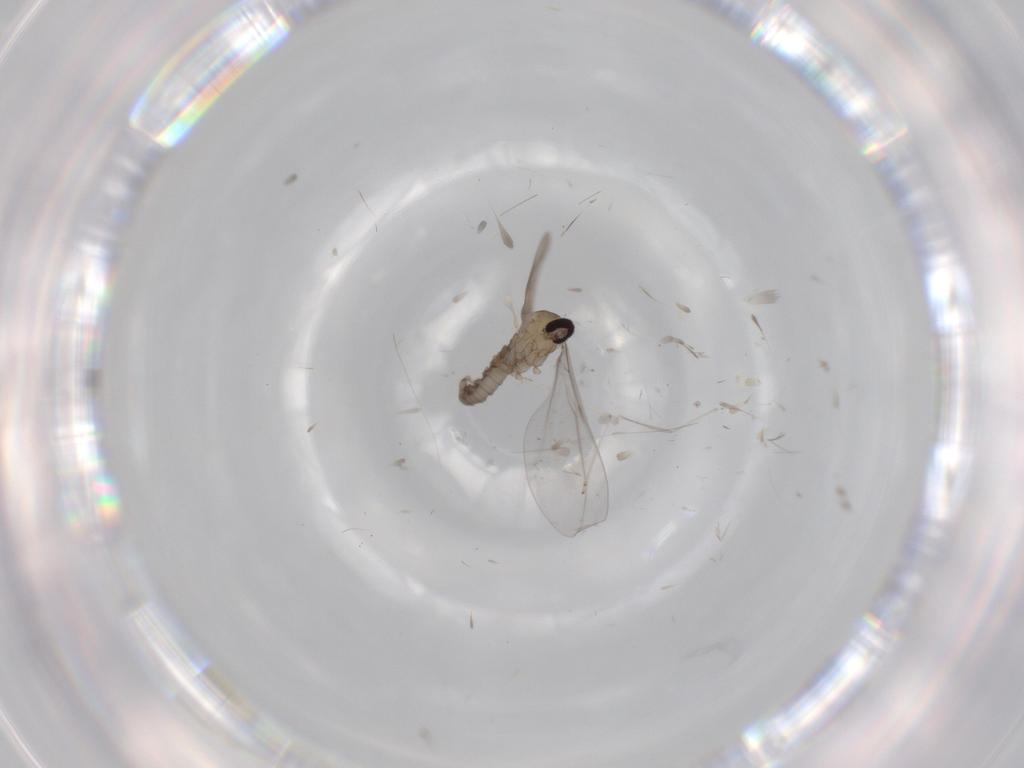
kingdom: Animalia
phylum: Arthropoda
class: Insecta
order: Diptera
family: Cecidomyiidae
